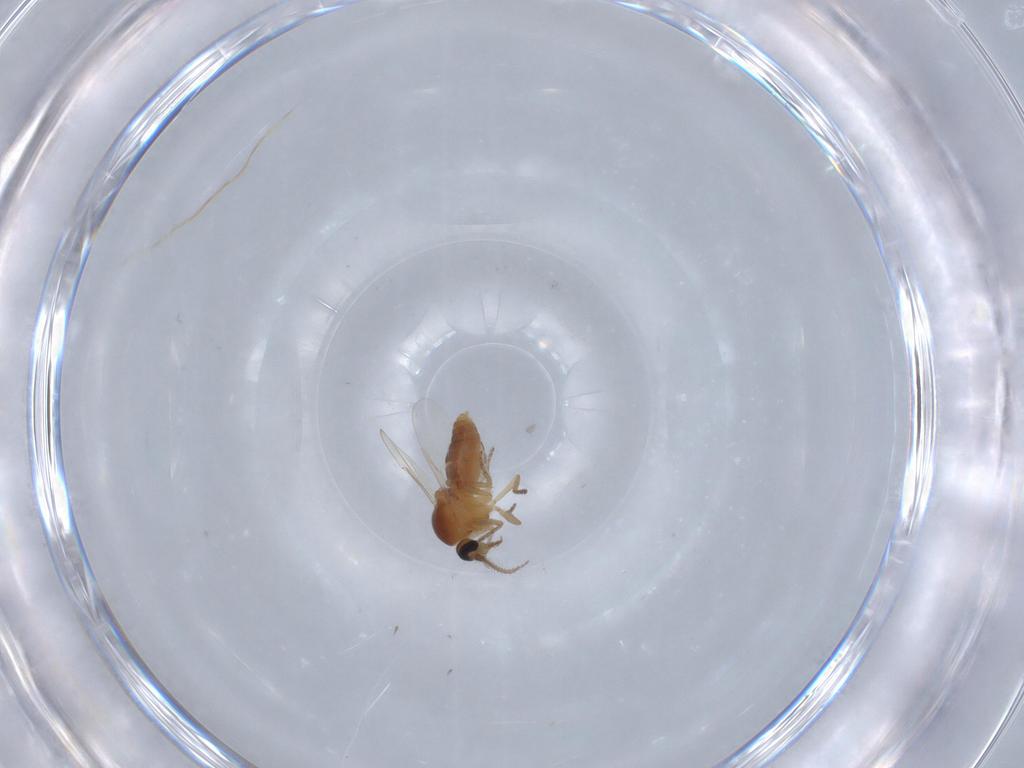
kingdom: Animalia
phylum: Arthropoda
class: Insecta
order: Diptera
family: Ceratopogonidae
